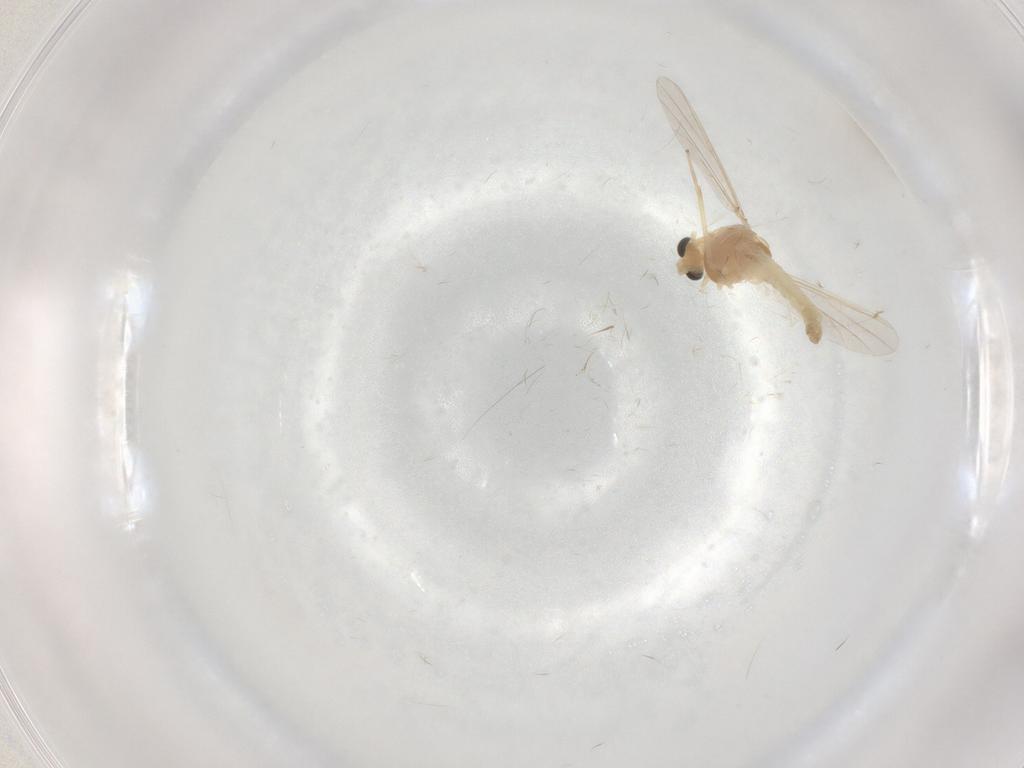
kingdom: Animalia
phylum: Arthropoda
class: Insecta
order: Diptera
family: Chironomidae
